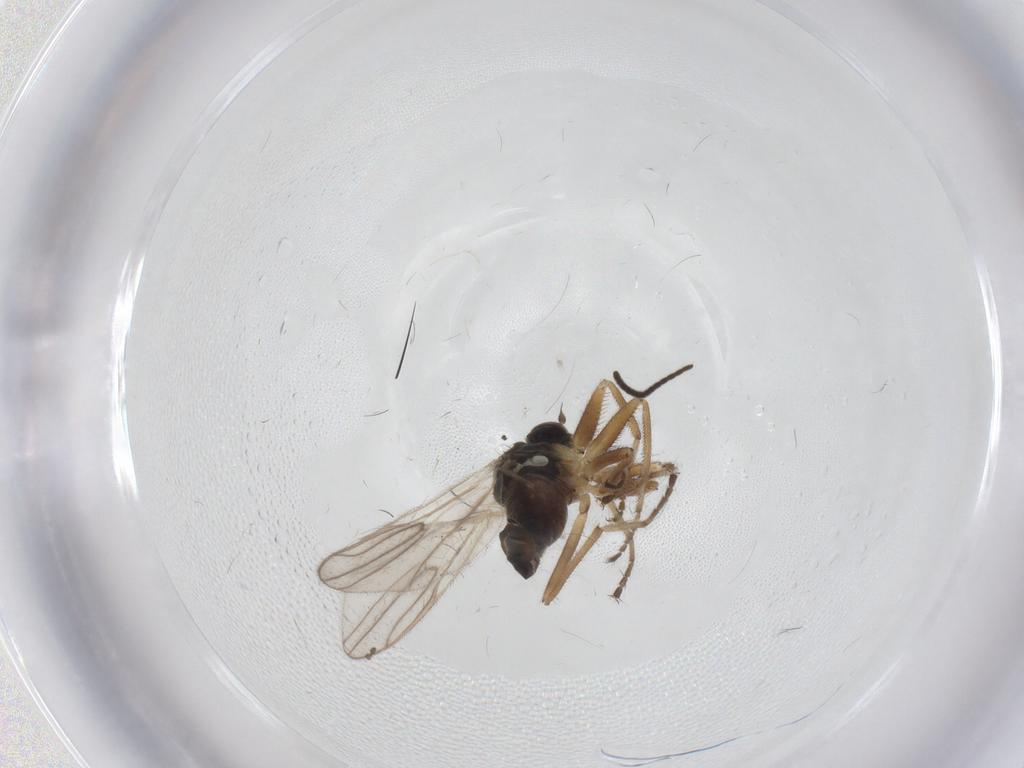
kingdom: Animalia
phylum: Arthropoda
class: Insecta
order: Diptera
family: Hybotidae
